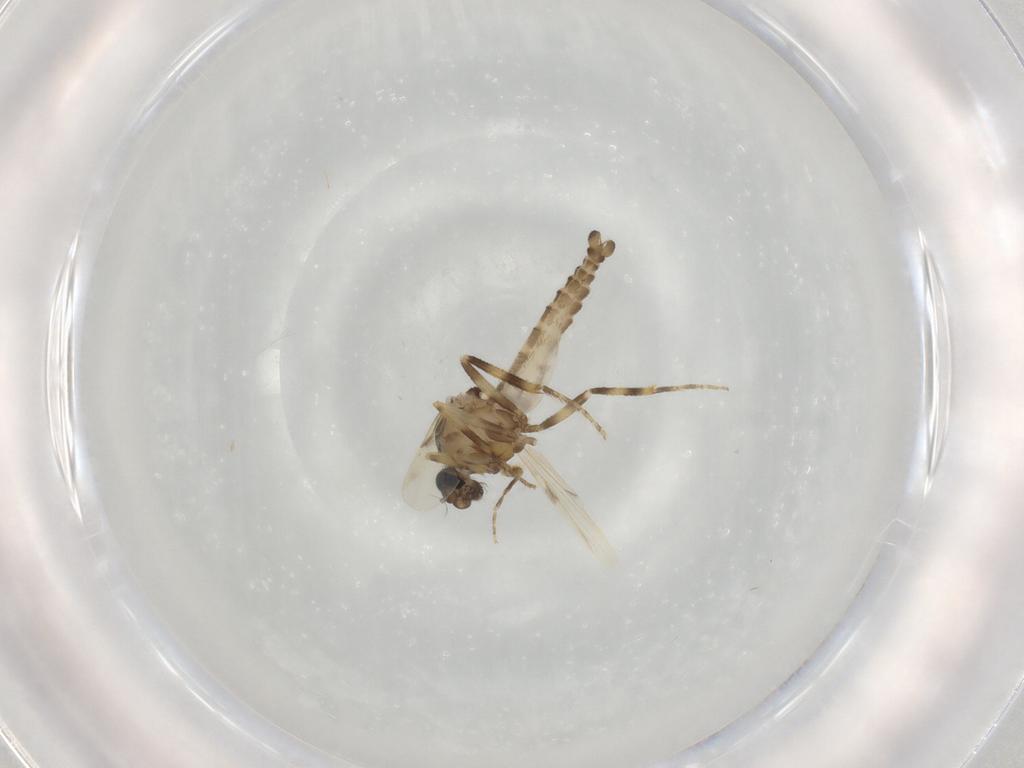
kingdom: Animalia
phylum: Arthropoda
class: Insecta
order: Diptera
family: Ceratopogonidae
